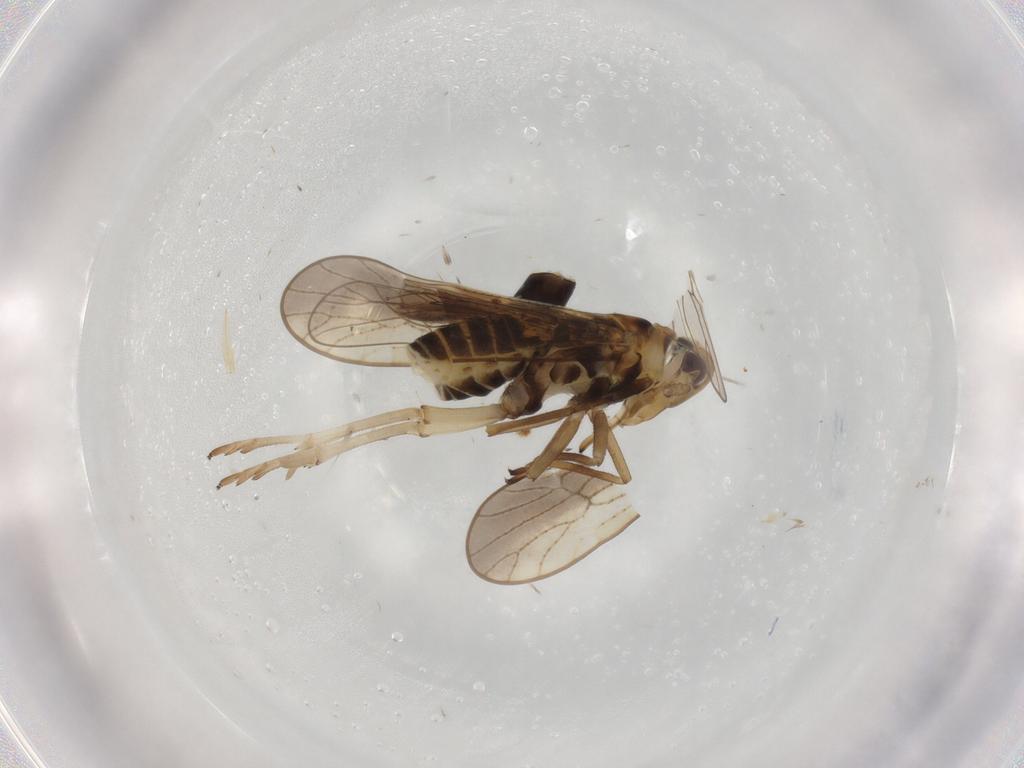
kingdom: Animalia
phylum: Arthropoda
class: Insecta
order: Hemiptera
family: Delphacidae
